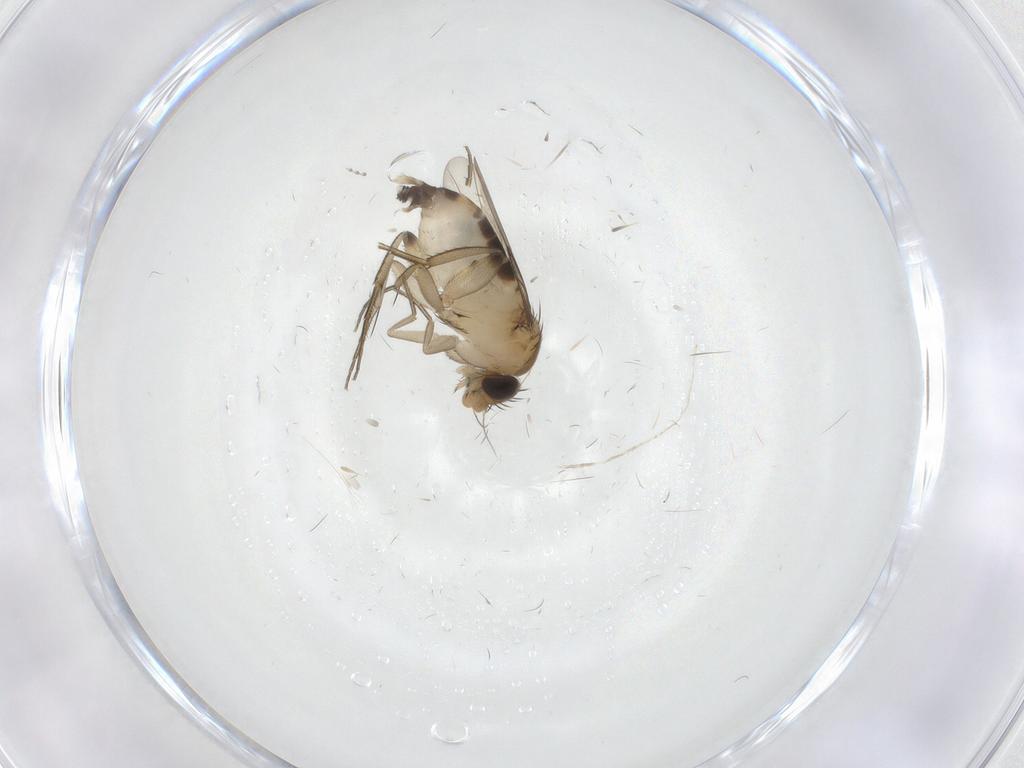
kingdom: Animalia
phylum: Arthropoda
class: Insecta
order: Diptera
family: Phoridae
